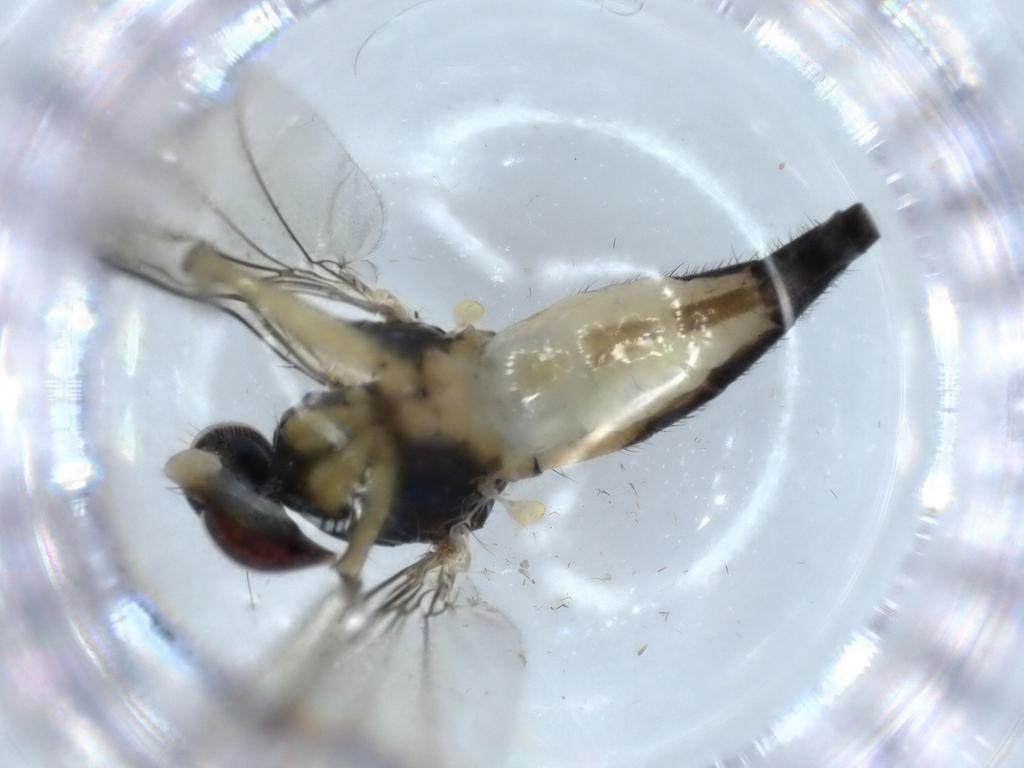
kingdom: Animalia
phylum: Arthropoda
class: Insecta
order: Diptera
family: Dolichopodidae
